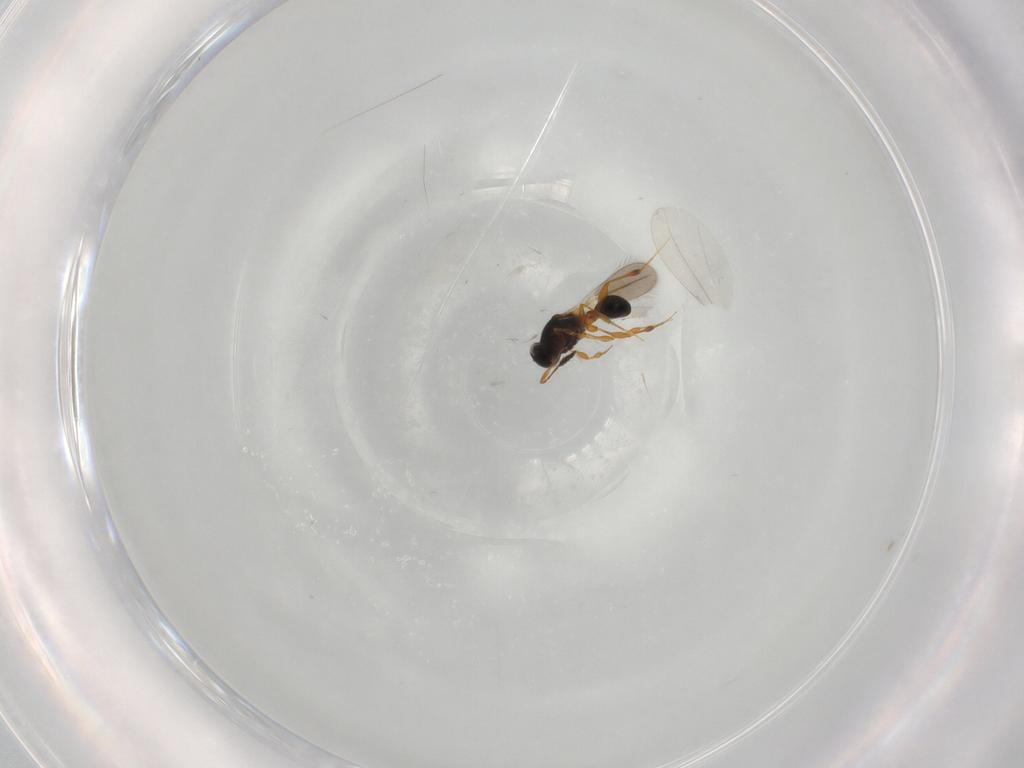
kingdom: Animalia
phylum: Arthropoda
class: Insecta
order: Hymenoptera
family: Platygastridae
